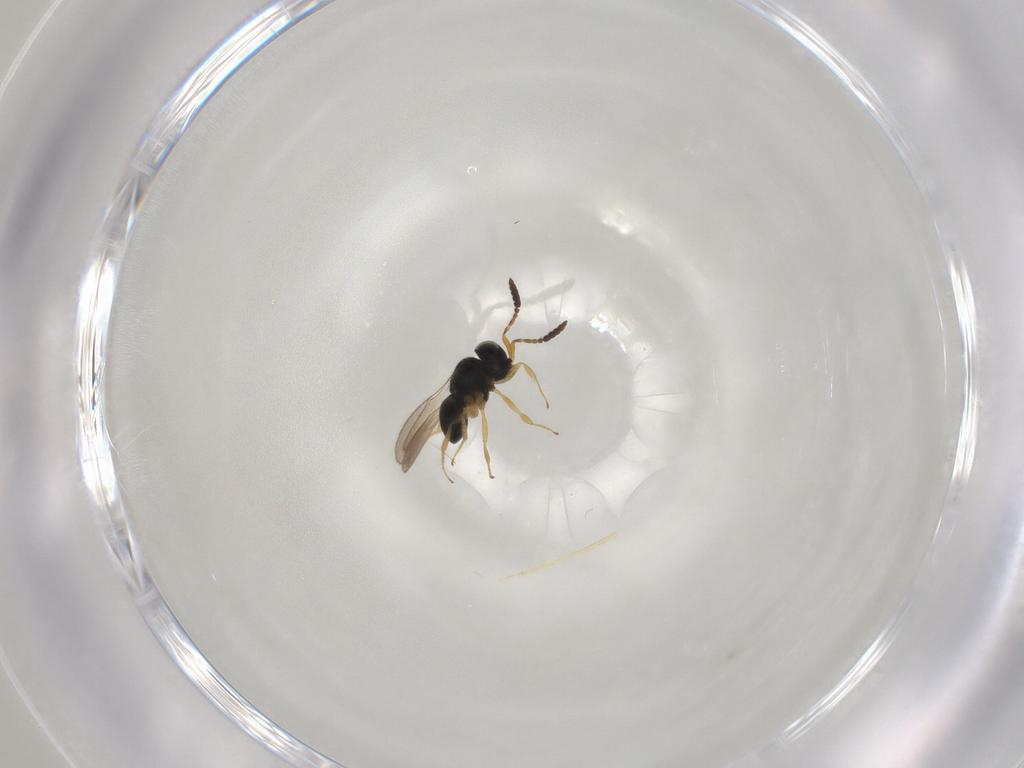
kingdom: Animalia
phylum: Arthropoda
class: Insecta
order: Hymenoptera
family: Scelionidae
